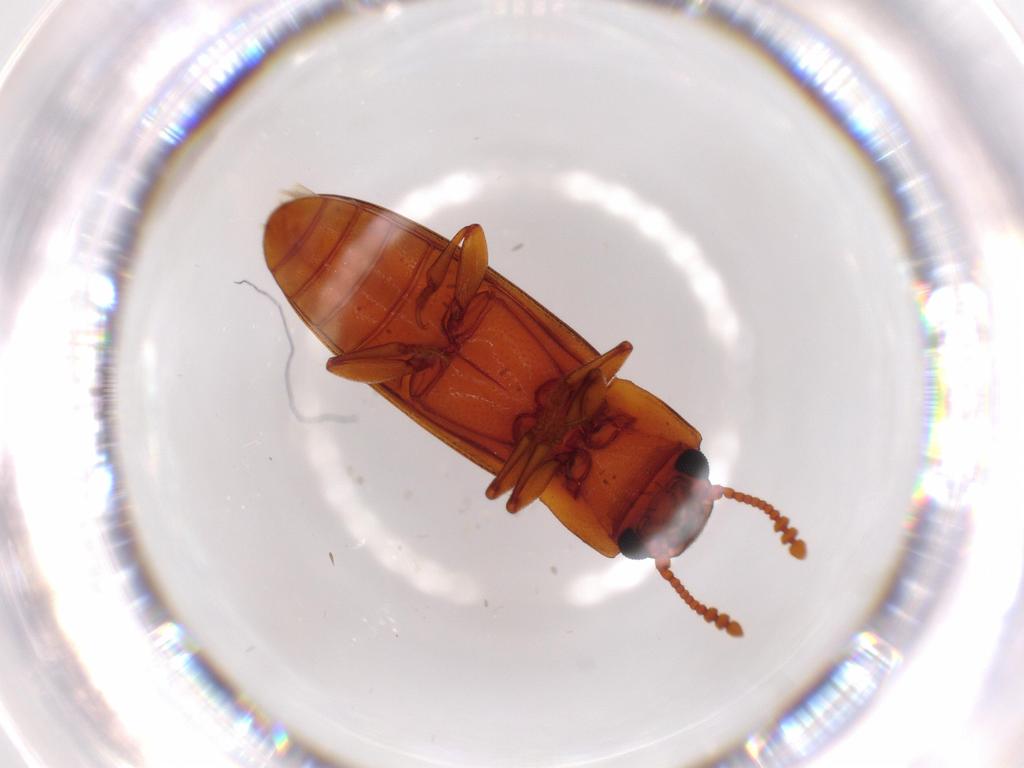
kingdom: Animalia
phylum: Arthropoda
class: Insecta
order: Coleoptera
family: Erotylidae
